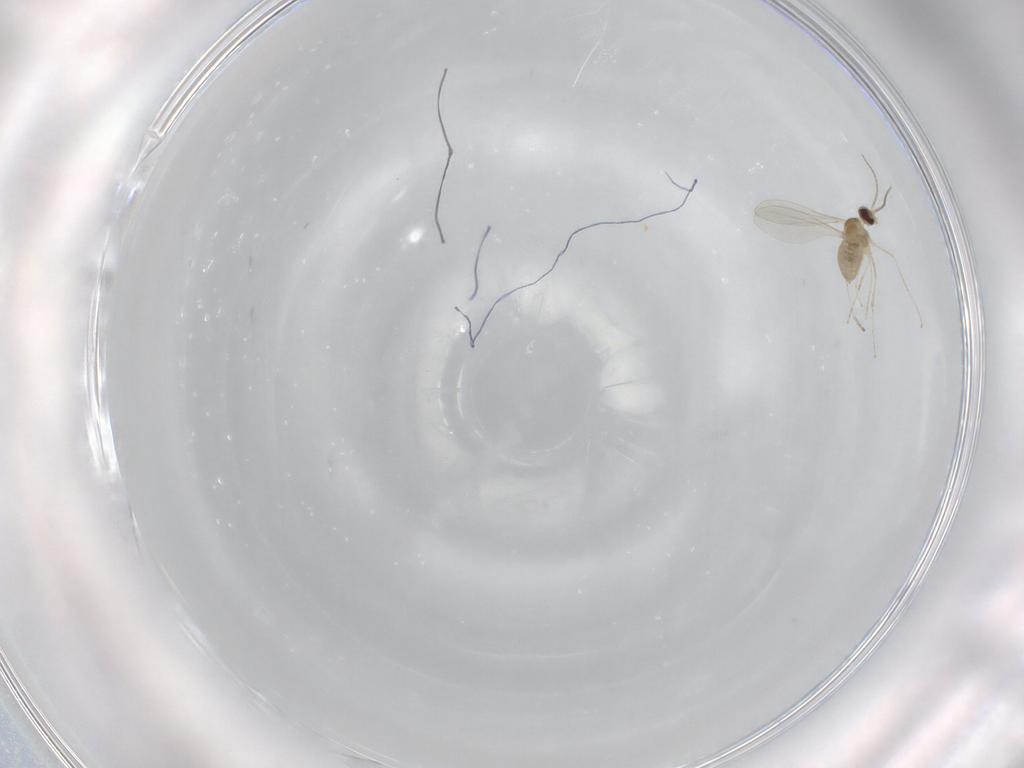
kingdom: Animalia
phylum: Arthropoda
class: Insecta
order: Diptera
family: Cecidomyiidae
